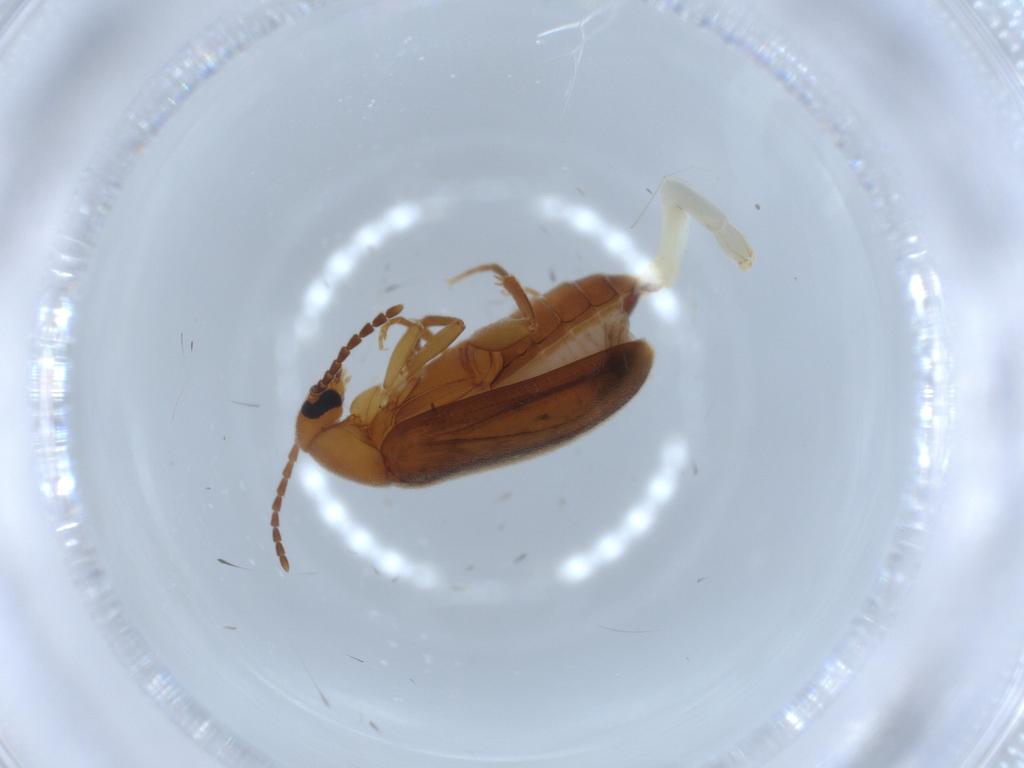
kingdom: Animalia
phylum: Arthropoda
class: Insecta
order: Coleoptera
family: Scraptiidae
